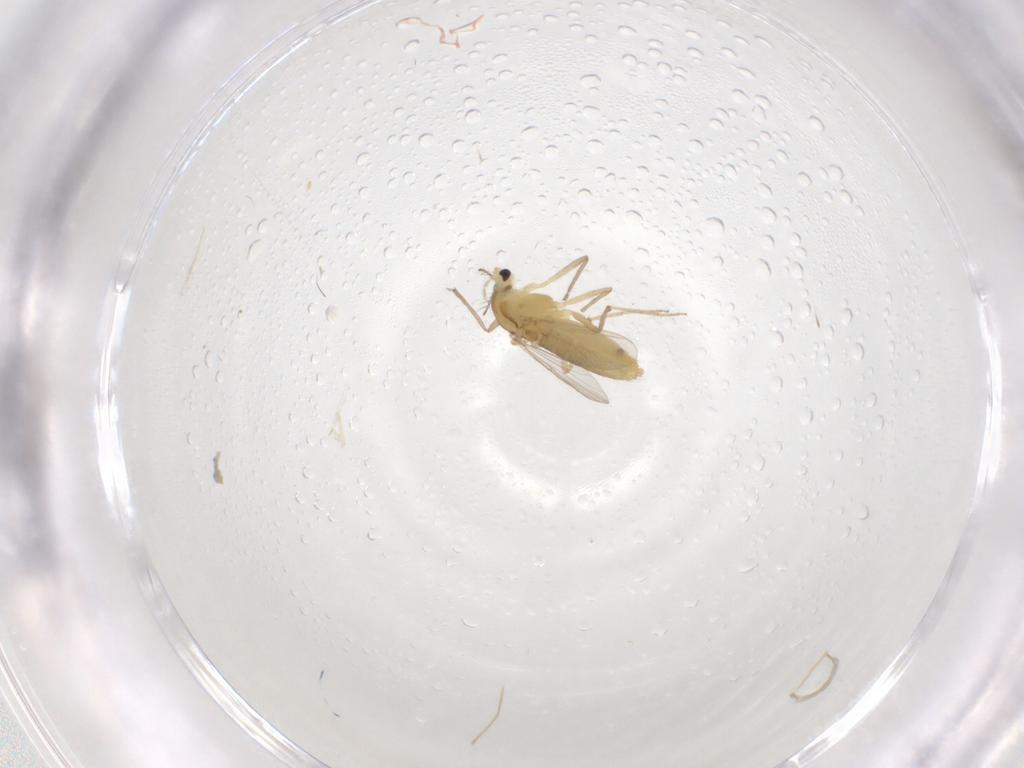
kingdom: Animalia
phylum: Arthropoda
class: Insecta
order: Diptera
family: Chironomidae
